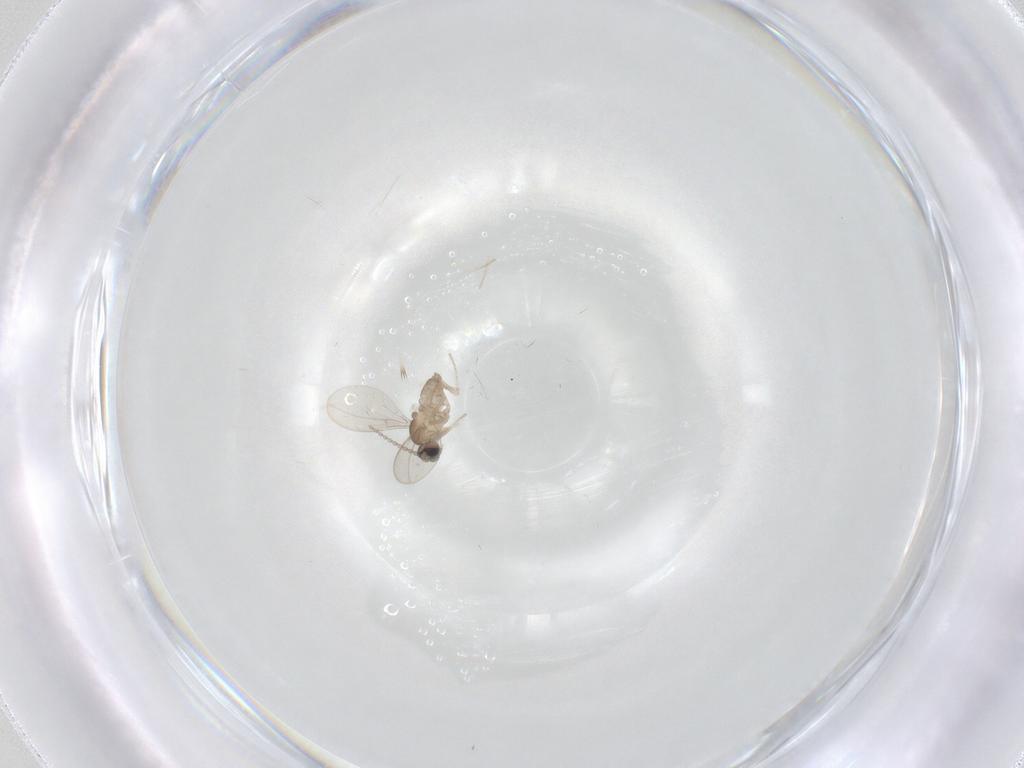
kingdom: Animalia
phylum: Arthropoda
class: Insecta
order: Diptera
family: Cecidomyiidae
